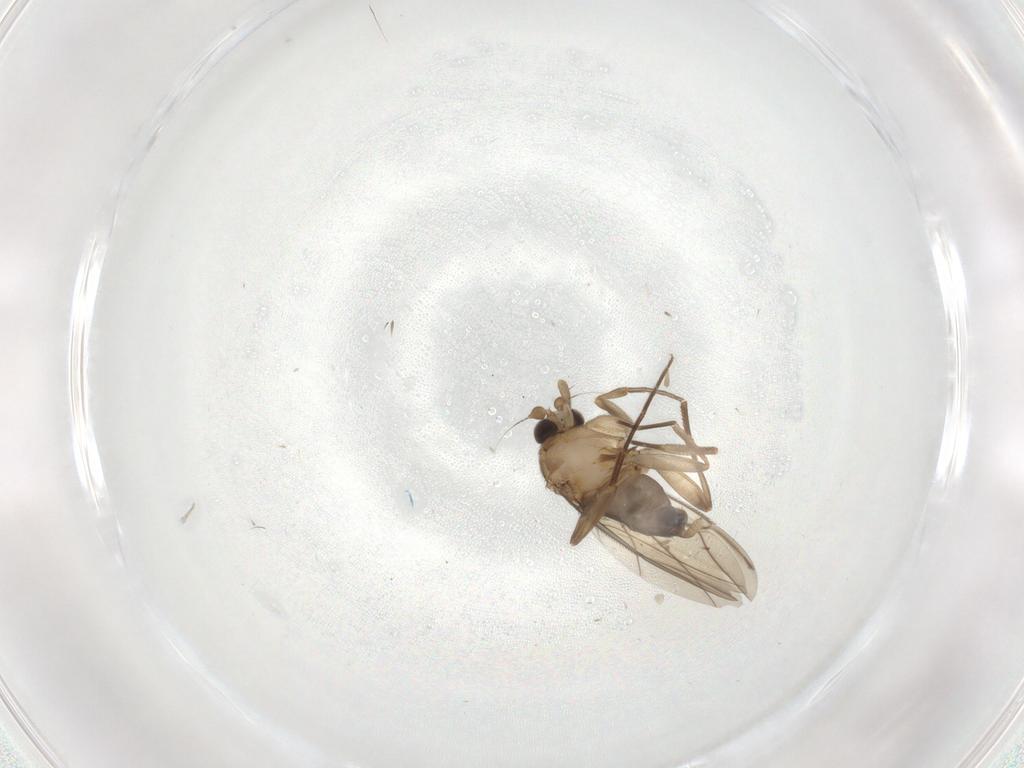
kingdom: Animalia
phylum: Arthropoda
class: Insecta
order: Diptera
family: Phoridae
